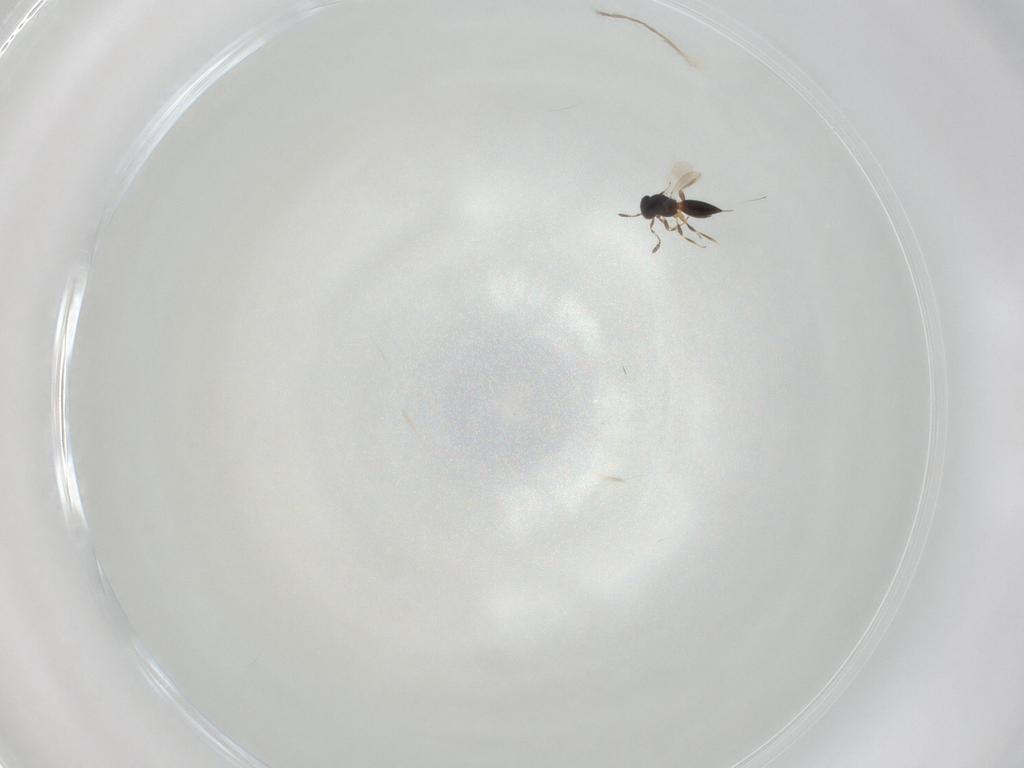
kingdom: Animalia
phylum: Arthropoda
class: Insecta
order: Hymenoptera
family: Platygastridae
